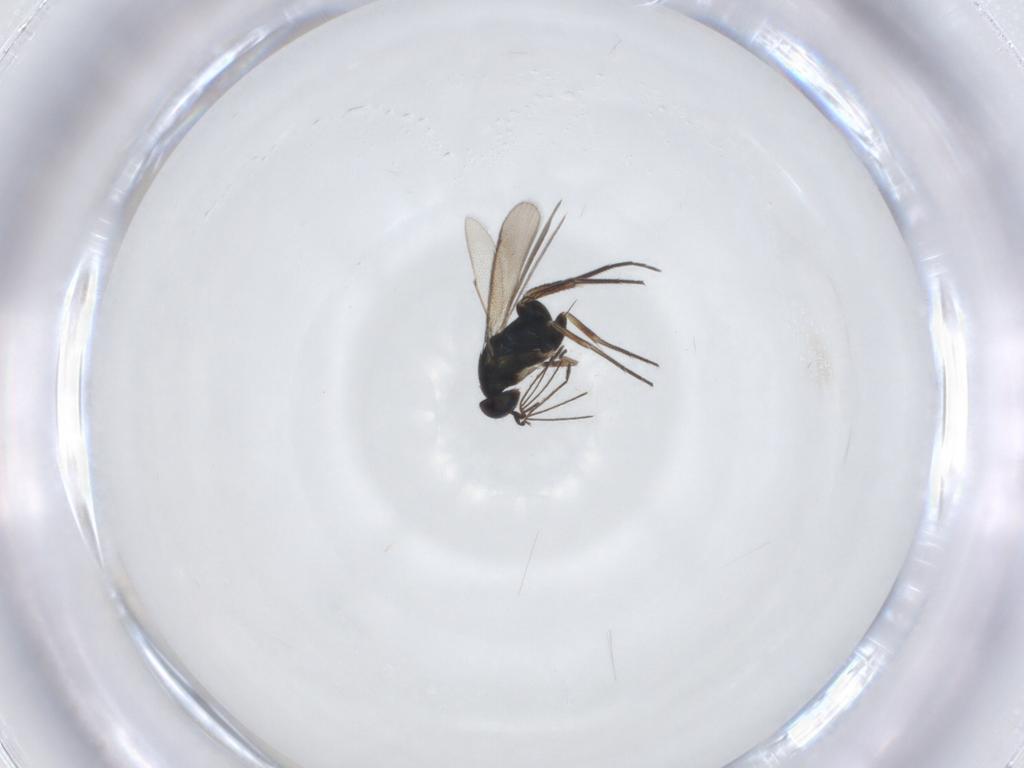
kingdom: Animalia
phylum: Arthropoda
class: Insecta
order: Hymenoptera
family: Eulophidae
